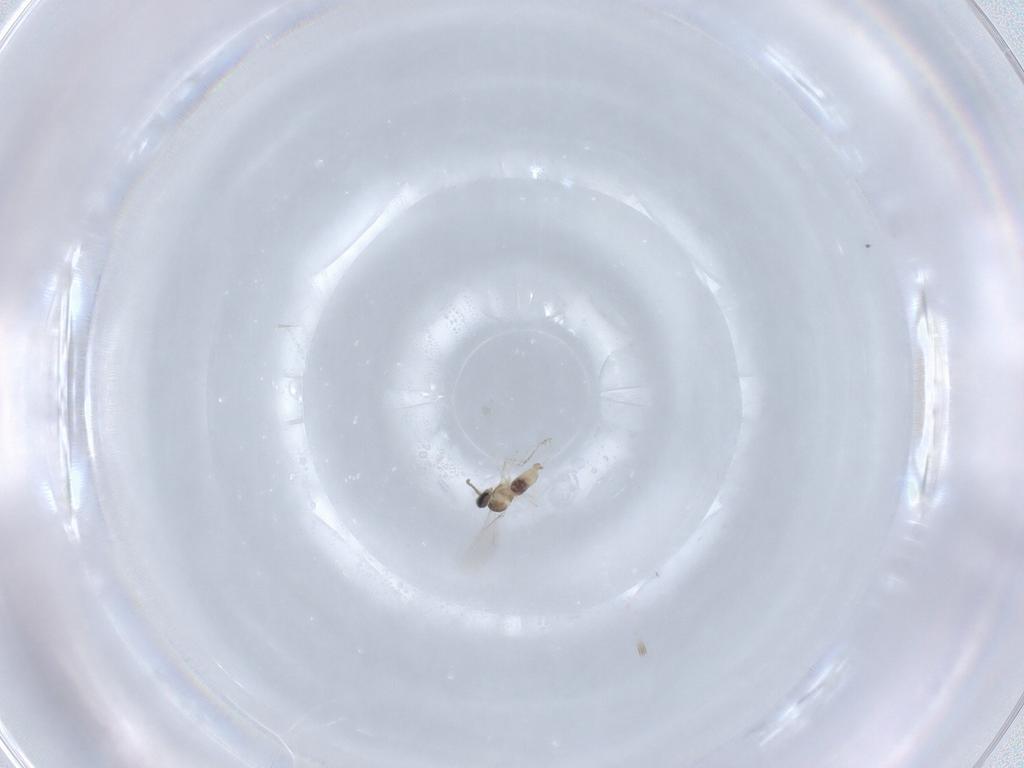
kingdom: Animalia
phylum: Arthropoda
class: Insecta
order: Diptera
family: Cecidomyiidae
